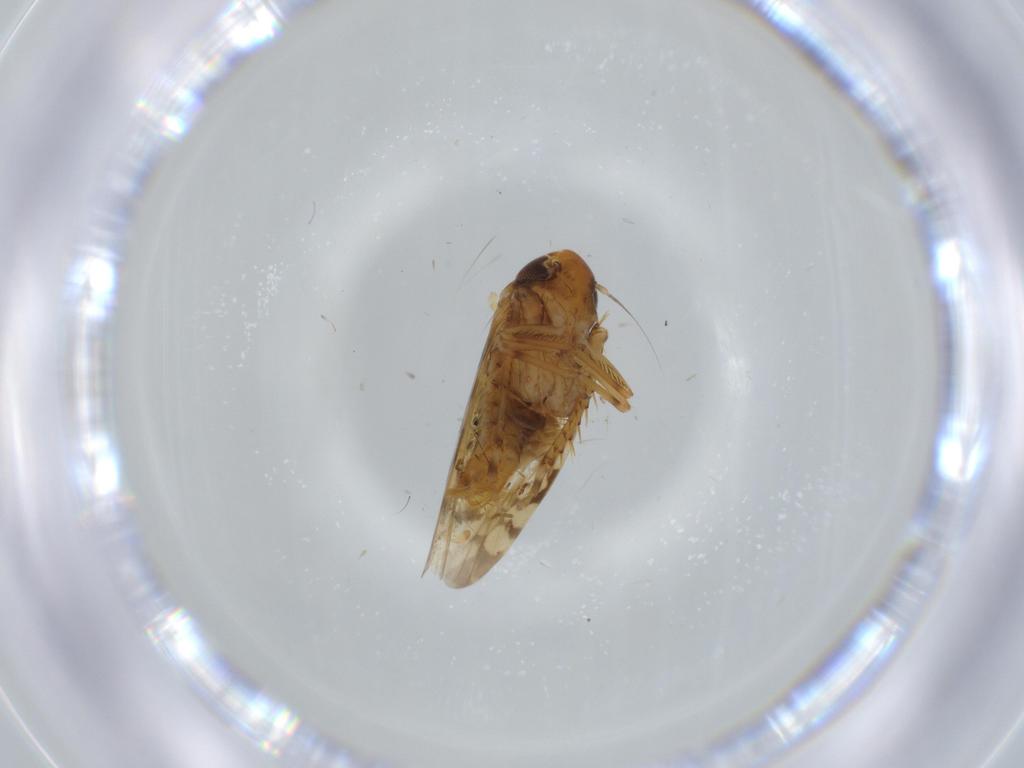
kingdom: Animalia
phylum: Arthropoda
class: Insecta
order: Hemiptera
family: Cicadellidae
